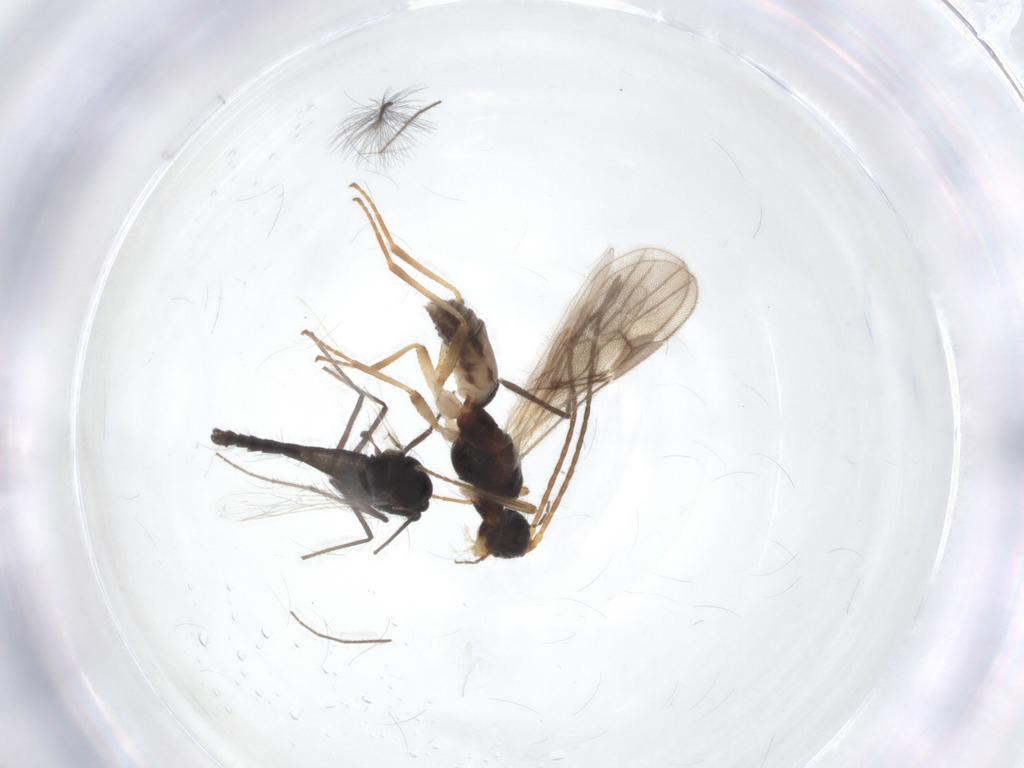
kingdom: Animalia
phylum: Arthropoda
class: Insecta
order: Hymenoptera
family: Braconidae
